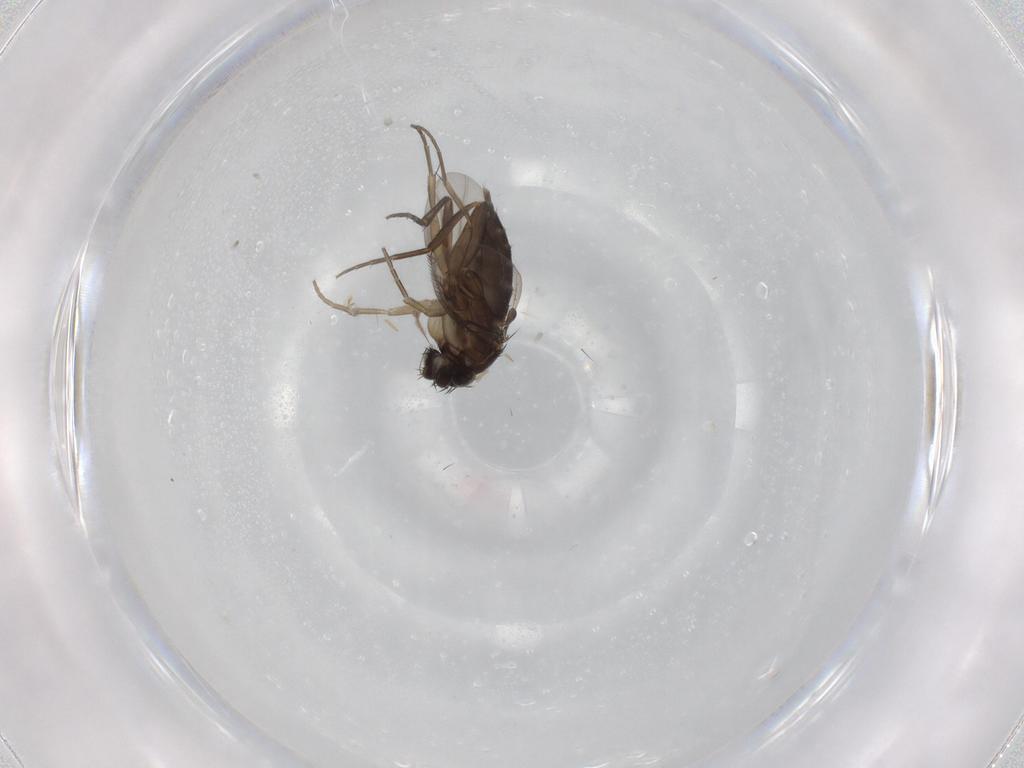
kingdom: Animalia
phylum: Arthropoda
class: Insecta
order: Diptera
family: Phoridae
